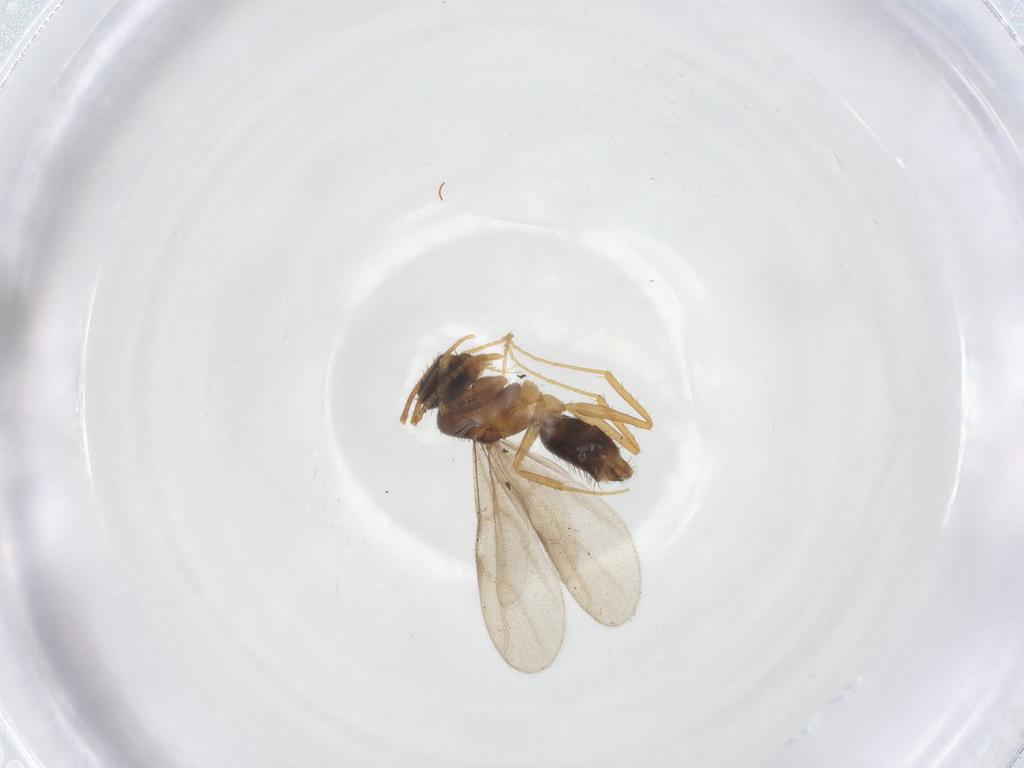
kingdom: Animalia
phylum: Arthropoda
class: Insecta
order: Hymenoptera
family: Formicidae
